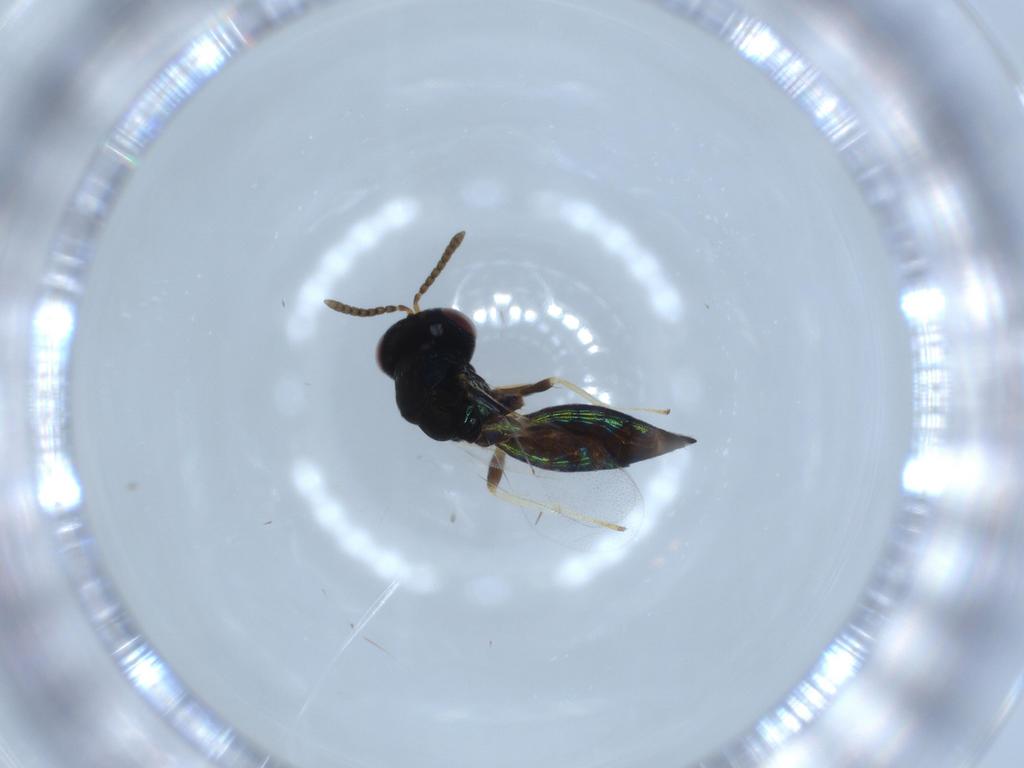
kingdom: Animalia
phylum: Arthropoda
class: Insecta
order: Hymenoptera
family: Pteromalidae
